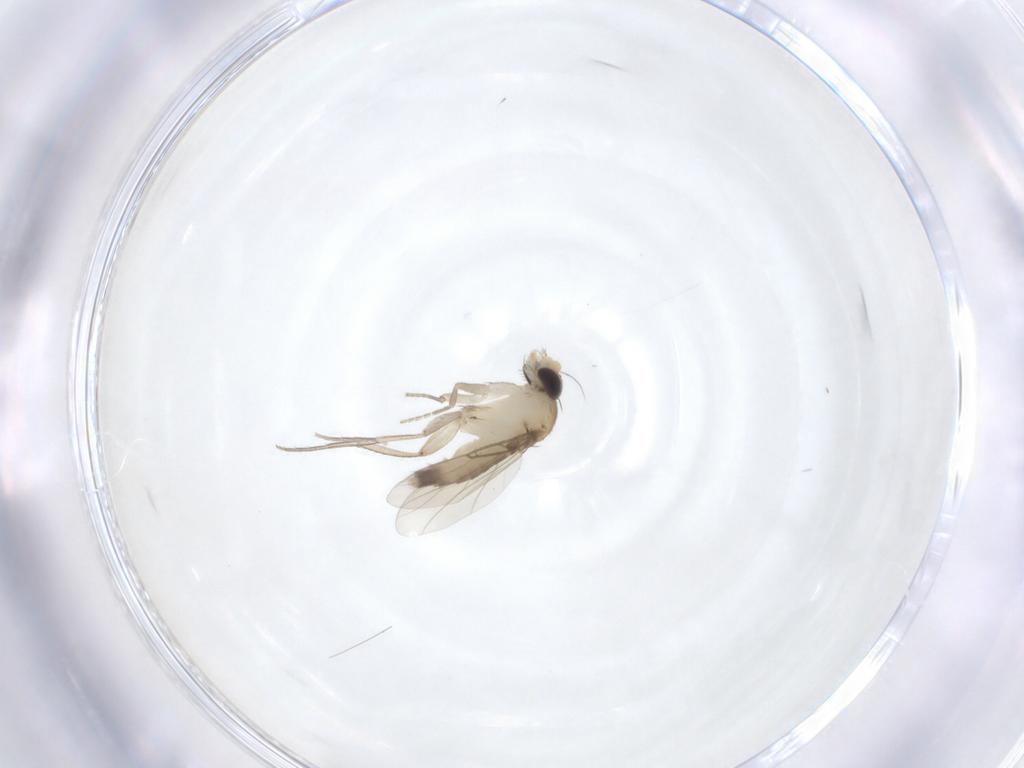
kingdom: Animalia
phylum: Arthropoda
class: Insecta
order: Diptera
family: Phoridae
